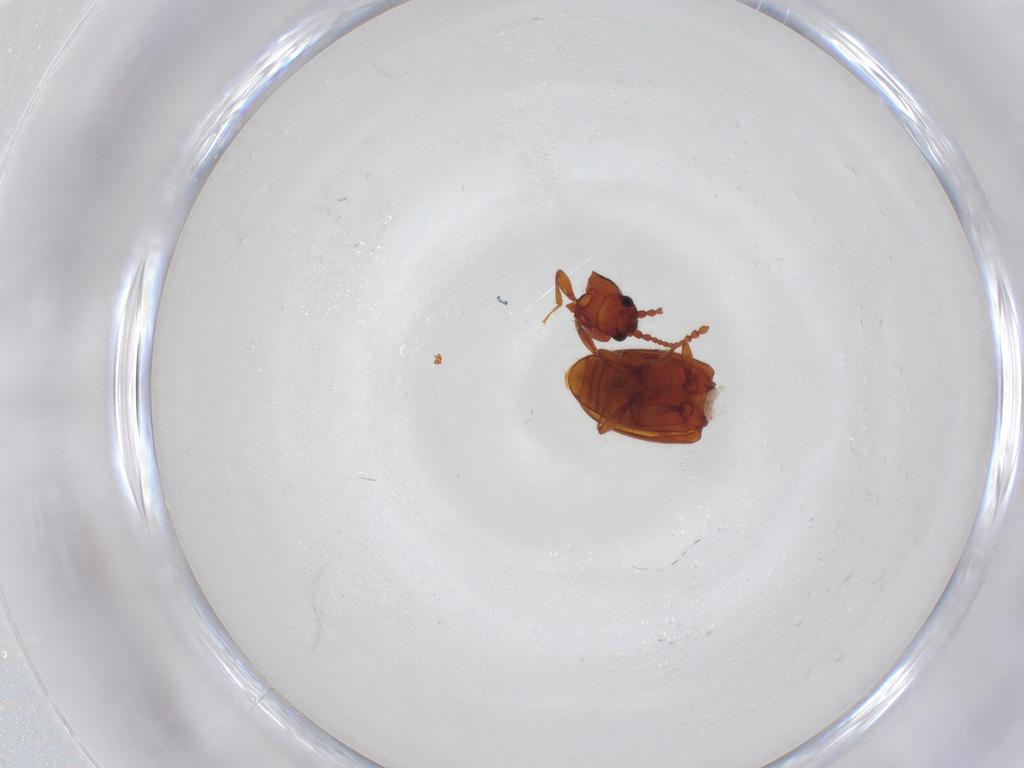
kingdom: Animalia
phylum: Arthropoda
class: Insecta
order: Coleoptera
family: Cryptophagidae
